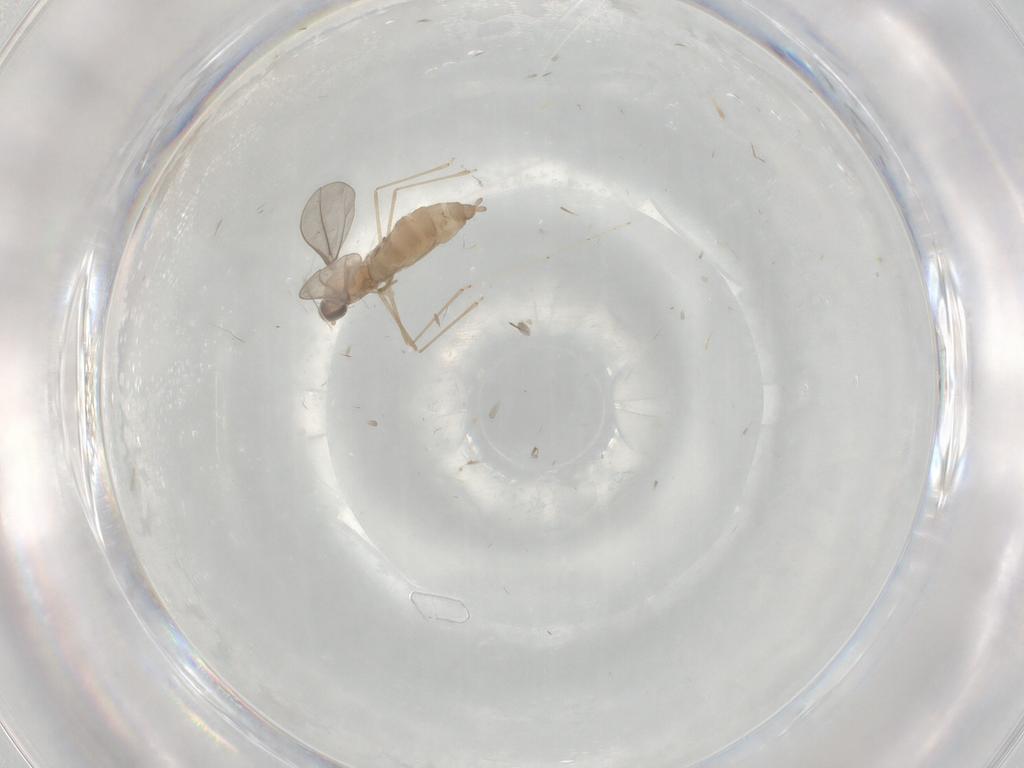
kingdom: Animalia
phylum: Arthropoda
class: Insecta
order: Diptera
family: Cecidomyiidae
